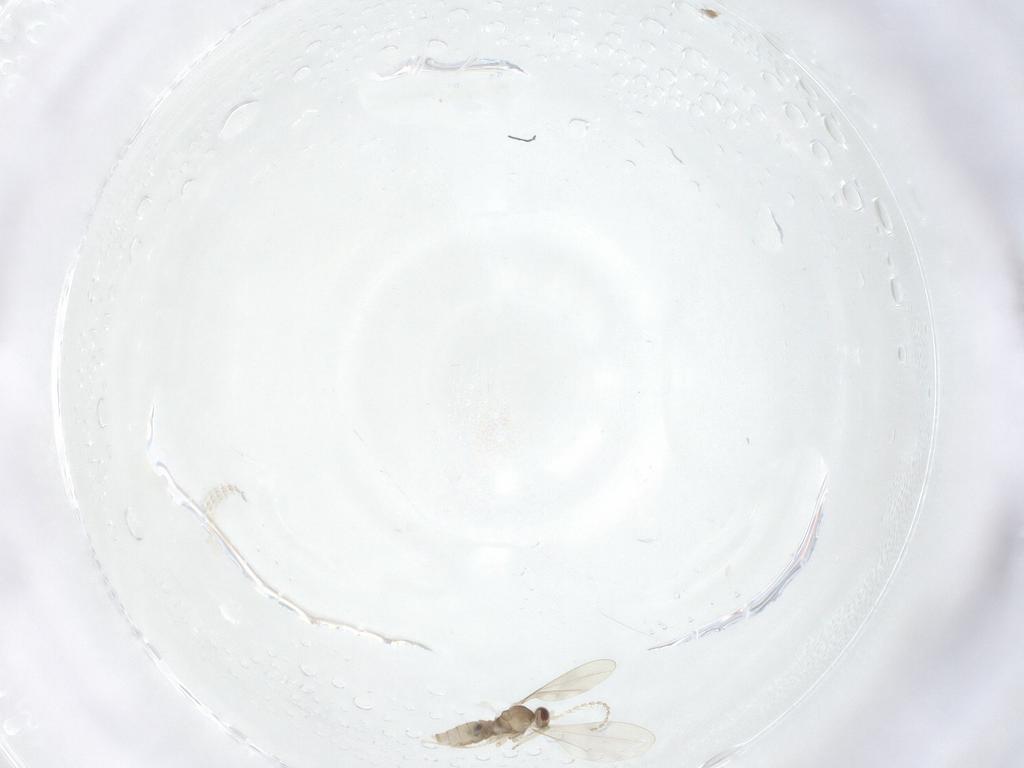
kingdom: Animalia
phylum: Arthropoda
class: Insecta
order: Diptera
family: Cecidomyiidae
